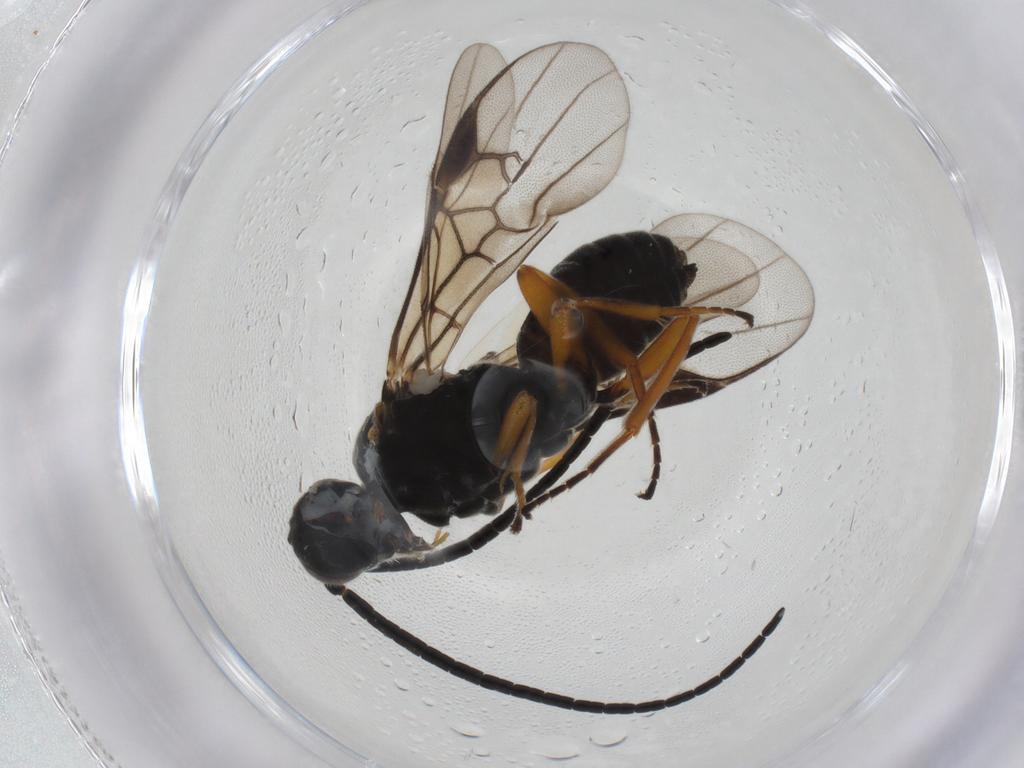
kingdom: Animalia
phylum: Arthropoda
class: Insecta
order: Hymenoptera
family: Braconidae
